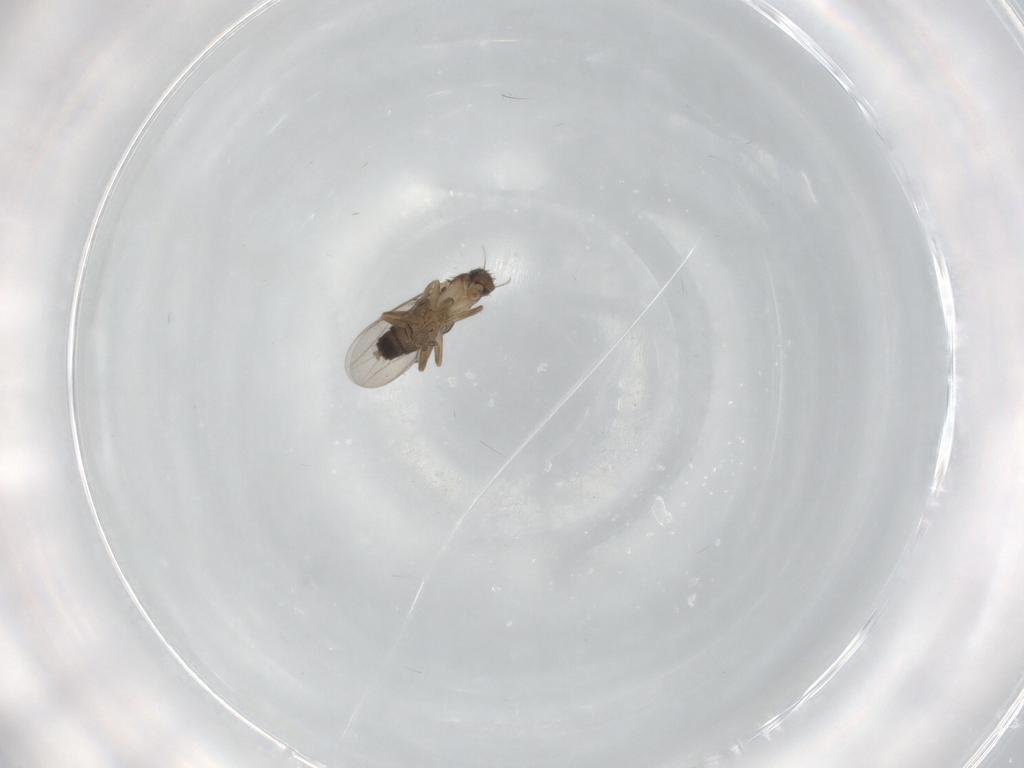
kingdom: Animalia
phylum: Arthropoda
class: Insecta
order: Diptera
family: Phoridae
